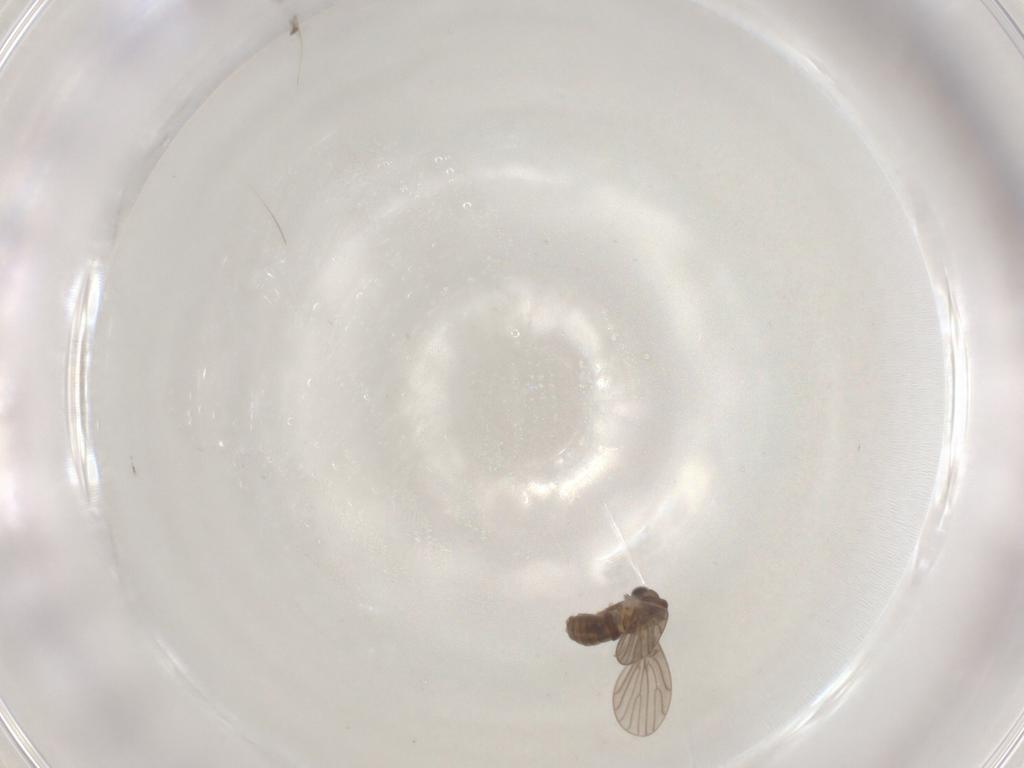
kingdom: Animalia
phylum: Arthropoda
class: Insecta
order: Diptera
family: Psychodidae
